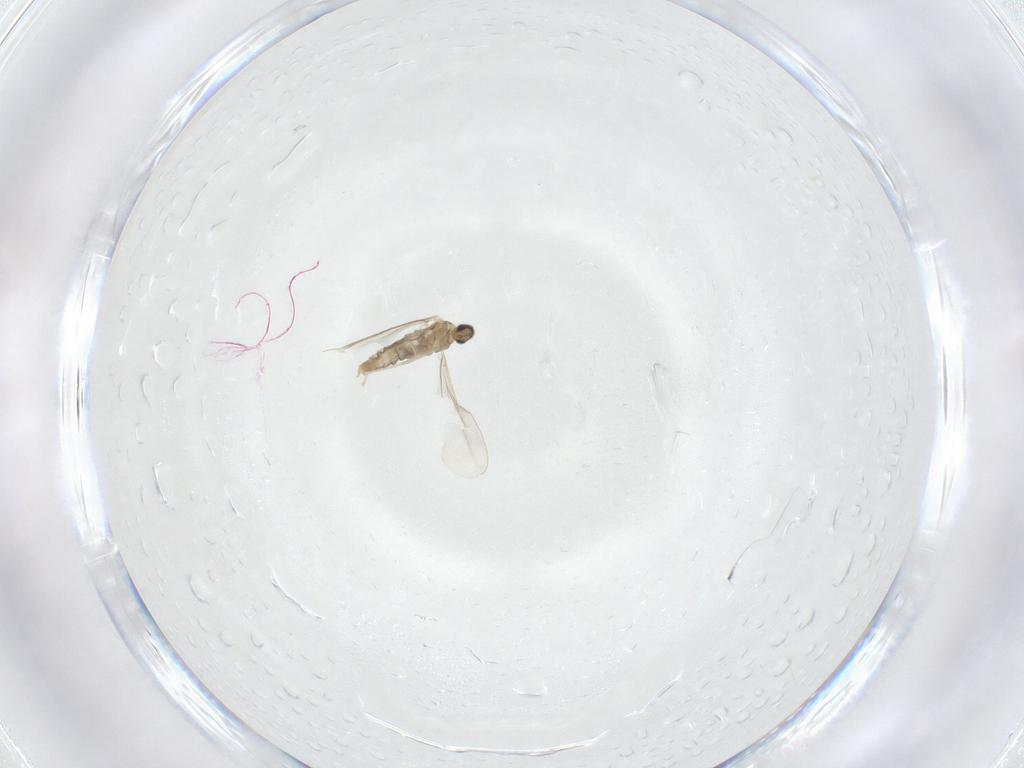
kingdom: Animalia
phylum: Arthropoda
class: Insecta
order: Diptera
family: Cecidomyiidae
